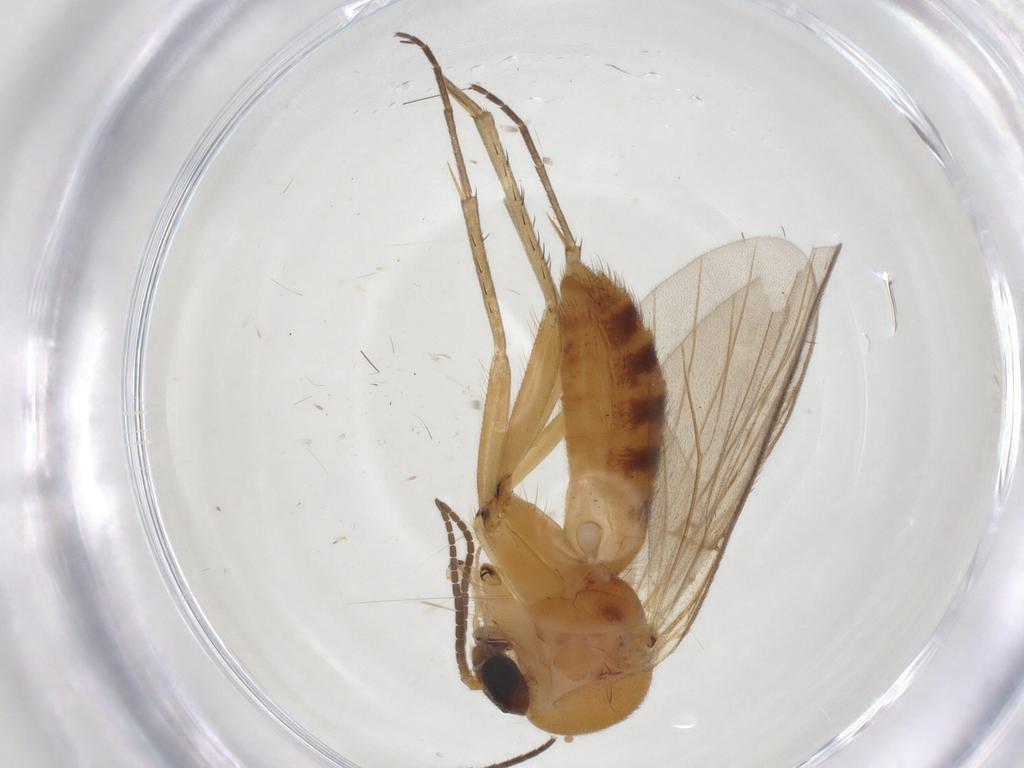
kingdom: Animalia
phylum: Arthropoda
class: Insecta
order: Diptera
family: Mycetophilidae
